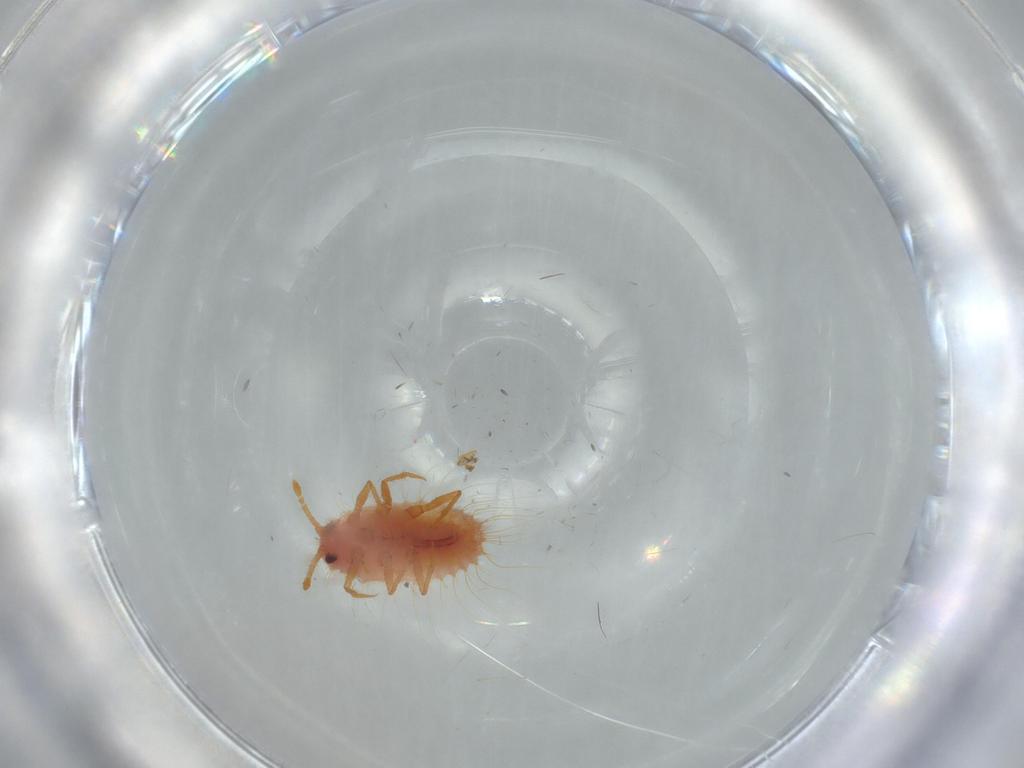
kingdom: Animalia
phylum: Arthropoda
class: Insecta
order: Hemiptera
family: Membracidae
